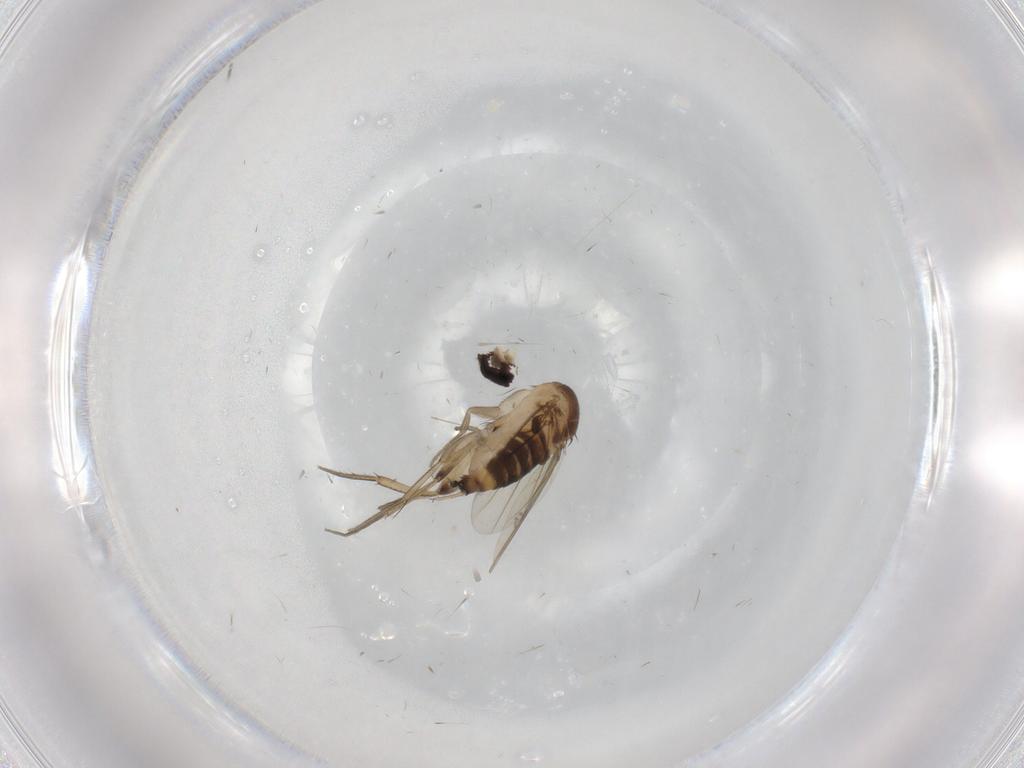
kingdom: Animalia
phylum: Arthropoda
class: Insecta
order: Diptera
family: Phoridae
